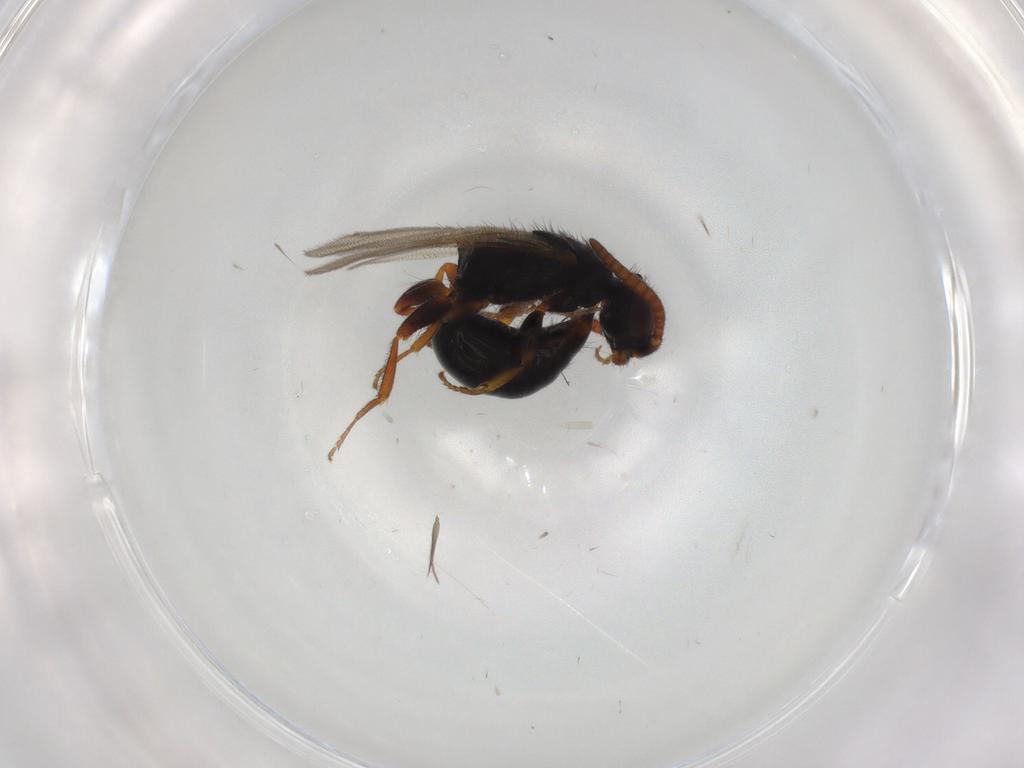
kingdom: Animalia
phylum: Arthropoda
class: Insecta
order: Hymenoptera
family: Bethylidae
